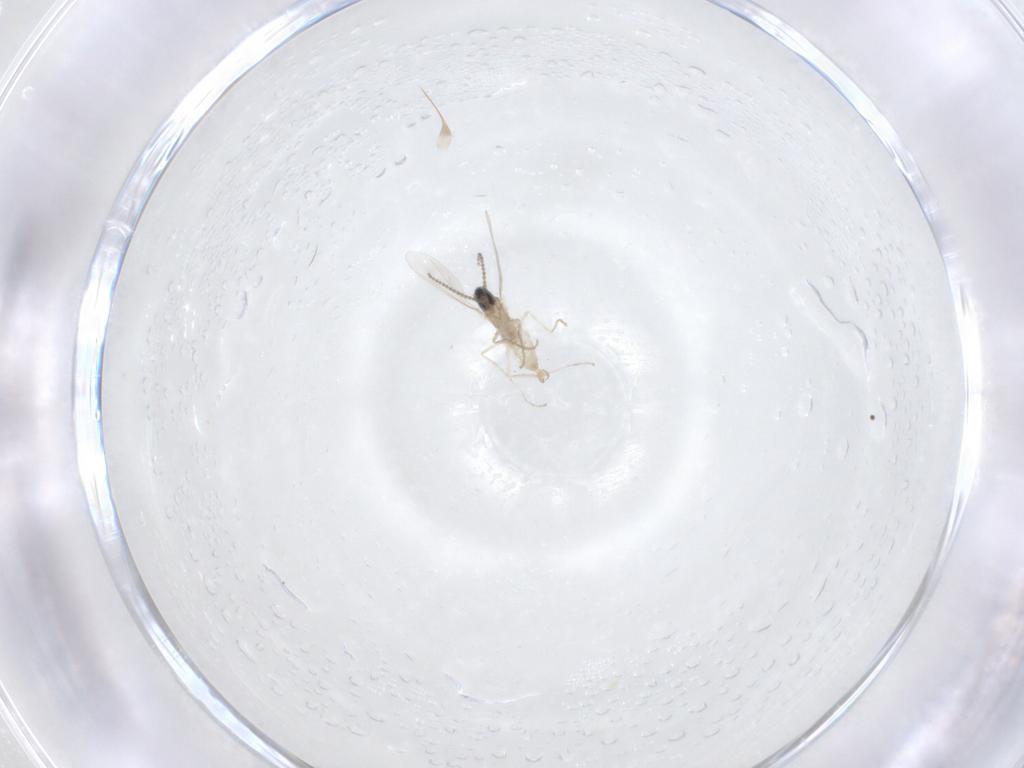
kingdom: Animalia
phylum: Arthropoda
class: Insecta
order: Diptera
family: Cecidomyiidae
